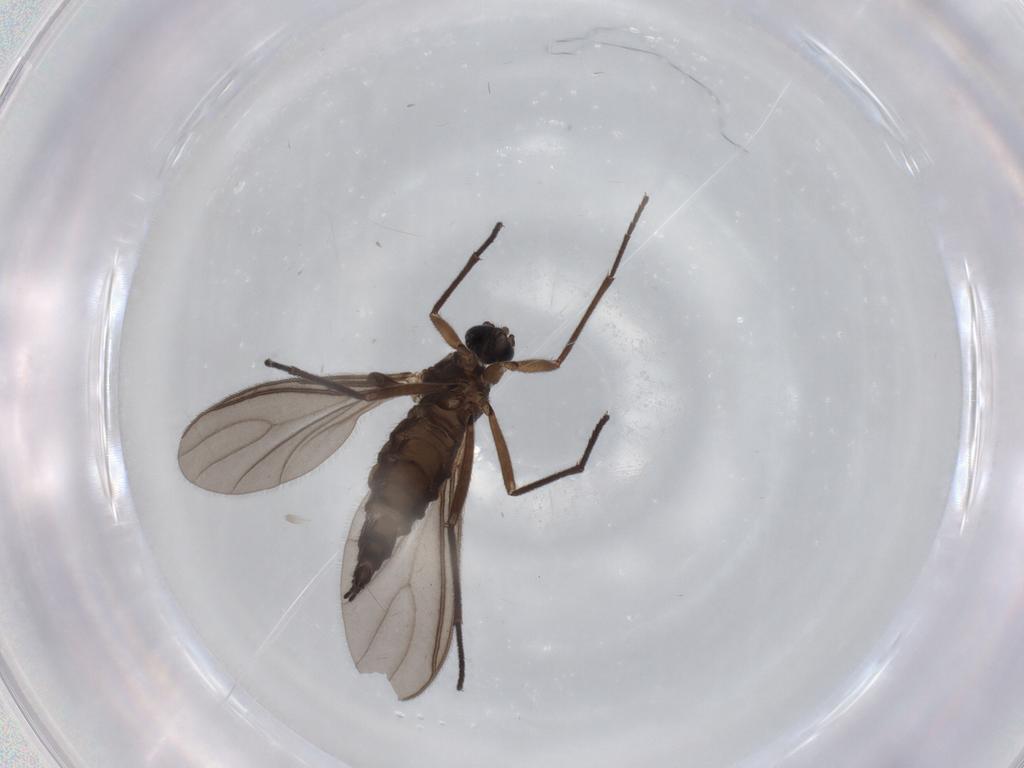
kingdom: Animalia
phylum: Arthropoda
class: Insecta
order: Diptera
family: Sciaridae
